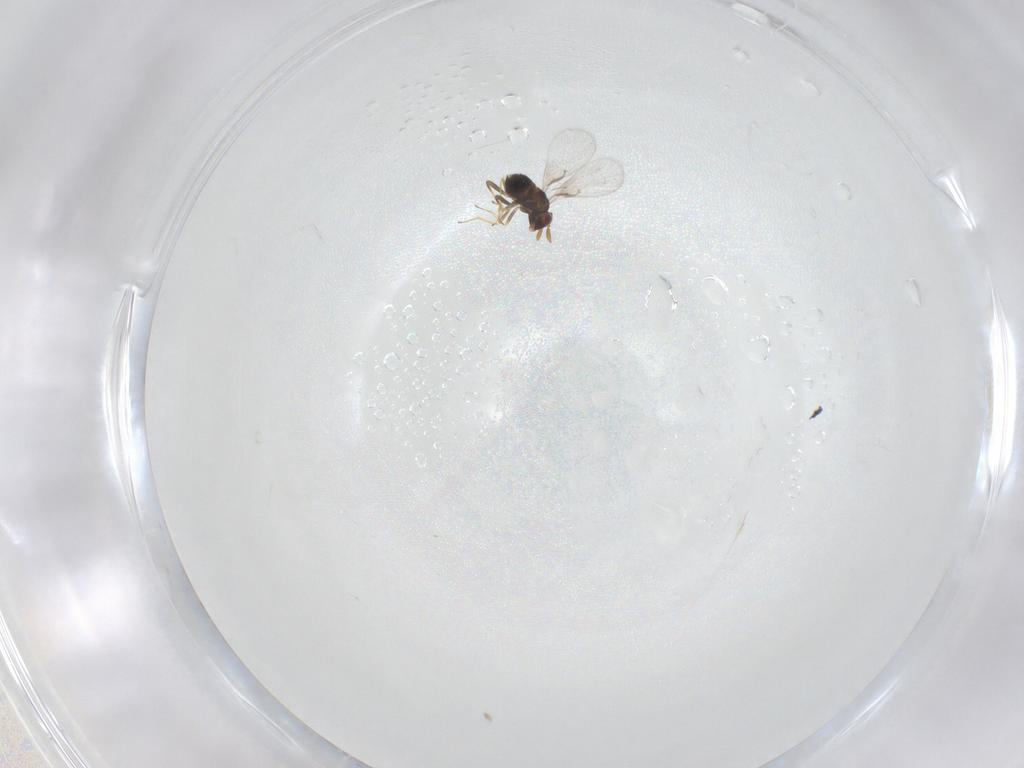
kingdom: Animalia
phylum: Arthropoda
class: Insecta
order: Hymenoptera
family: Trichogrammatidae
